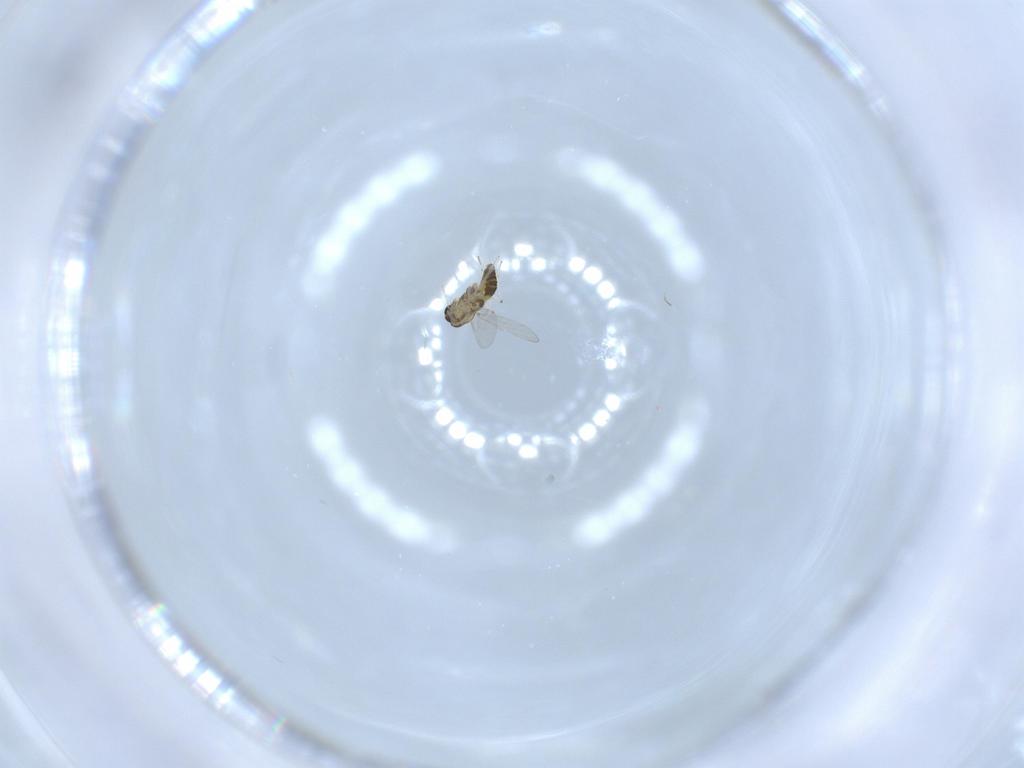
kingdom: Animalia
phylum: Arthropoda
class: Insecta
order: Diptera
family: Chironomidae
